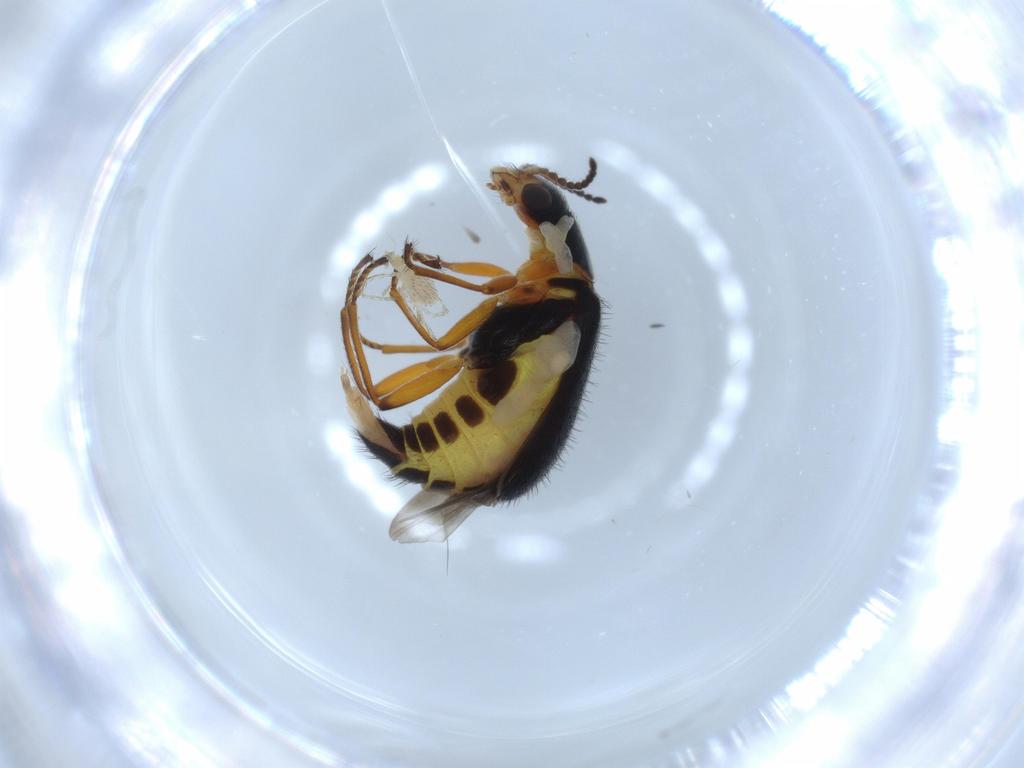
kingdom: Animalia
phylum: Arthropoda
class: Insecta
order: Coleoptera
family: Melyridae
